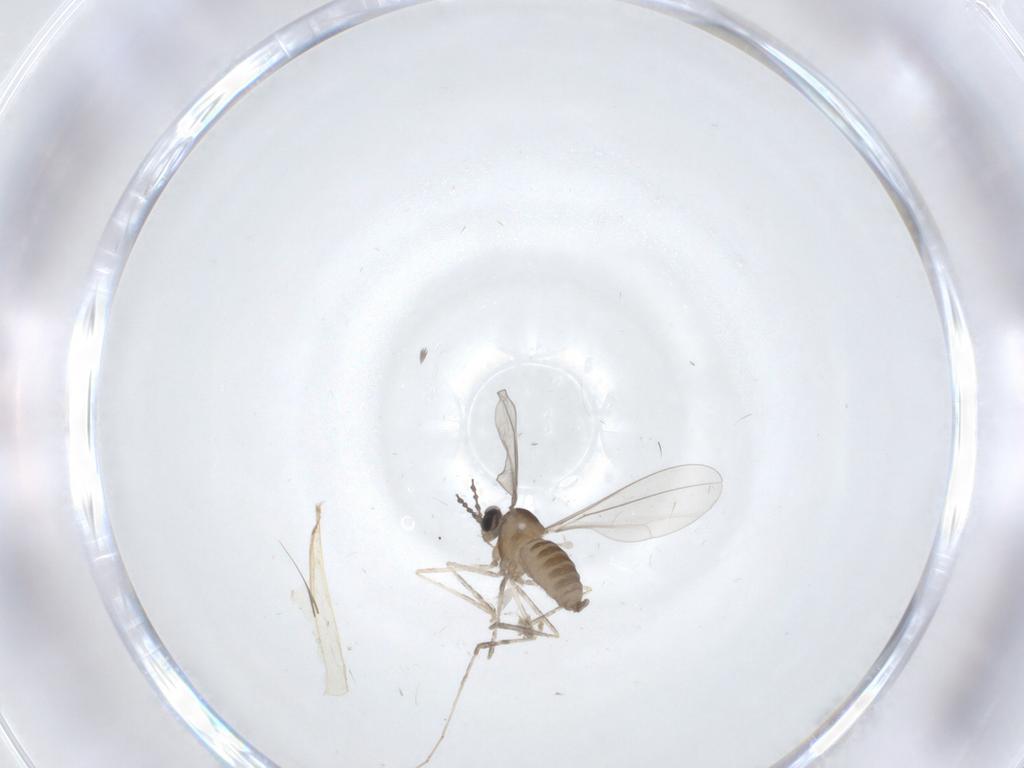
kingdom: Animalia
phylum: Arthropoda
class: Insecta
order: Diptera
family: Cecidomyiidae
